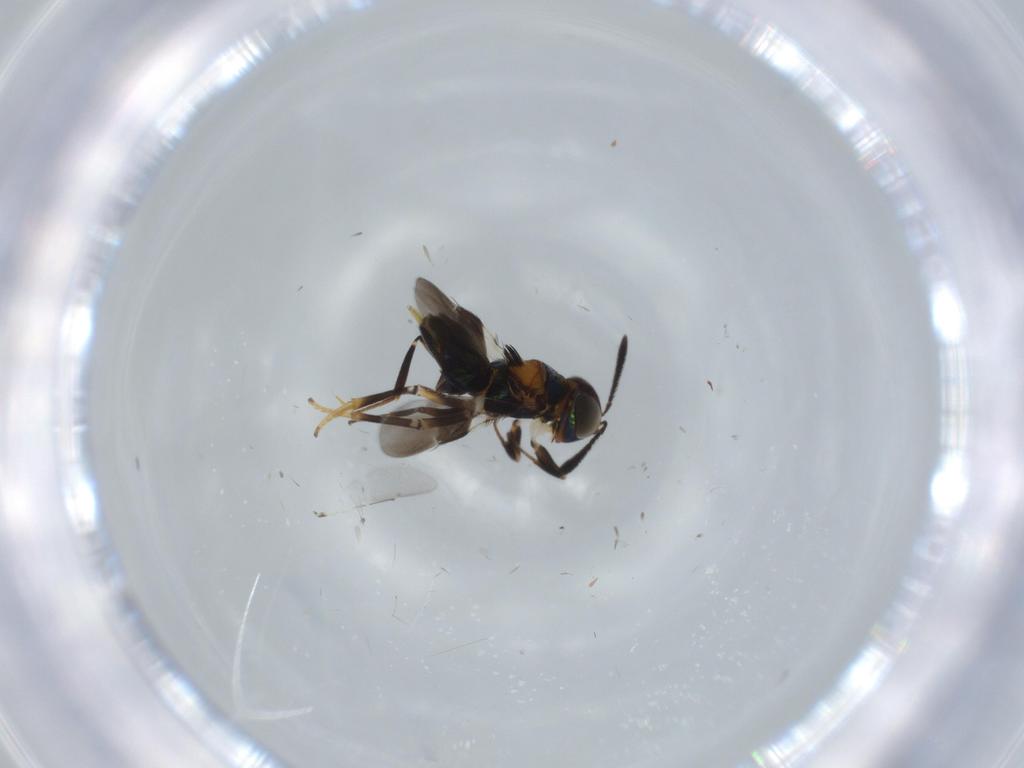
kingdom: Animalia
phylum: Arthropoda
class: Insecta
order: Hymenoptera
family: Encyrtidae
